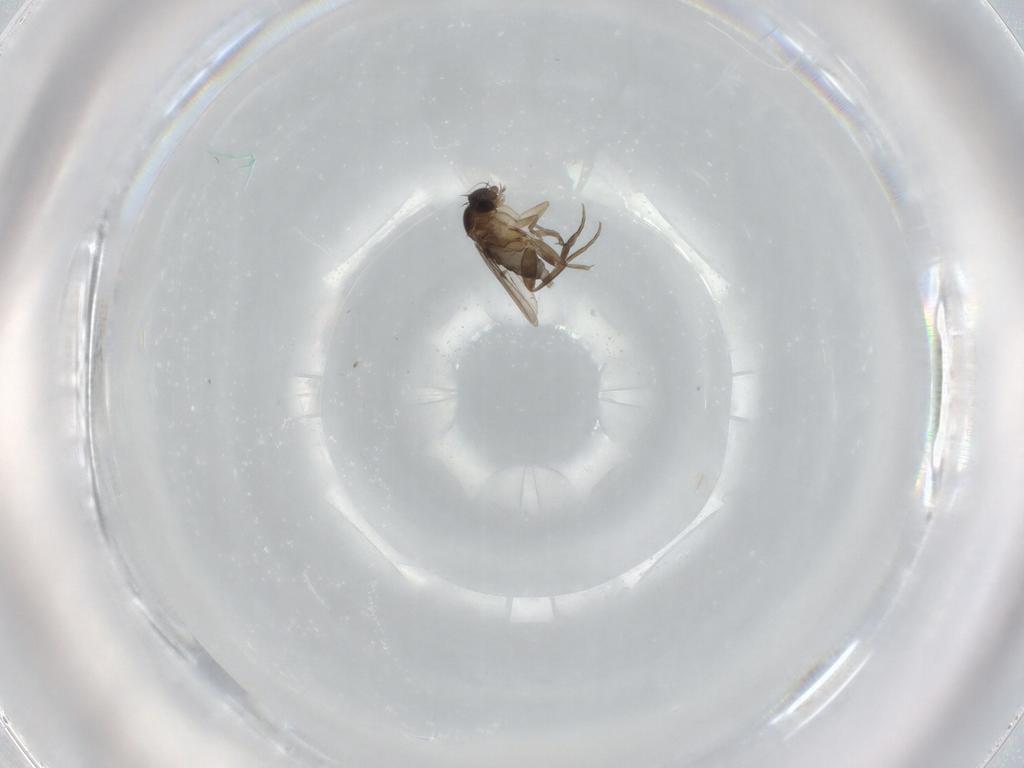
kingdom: Animalia
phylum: Arthropoda
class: Insecta
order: Diptera
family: Phoridae
